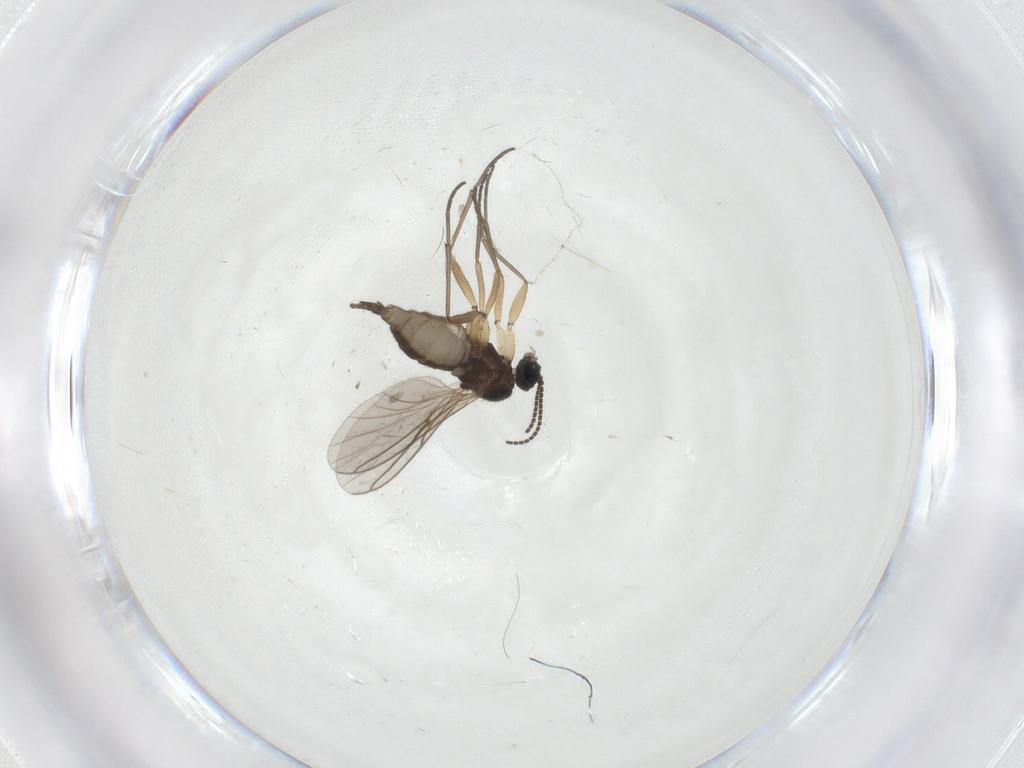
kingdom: Animalia
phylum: Arthropoda
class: Insecta
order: Diptera
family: Sciaridae
